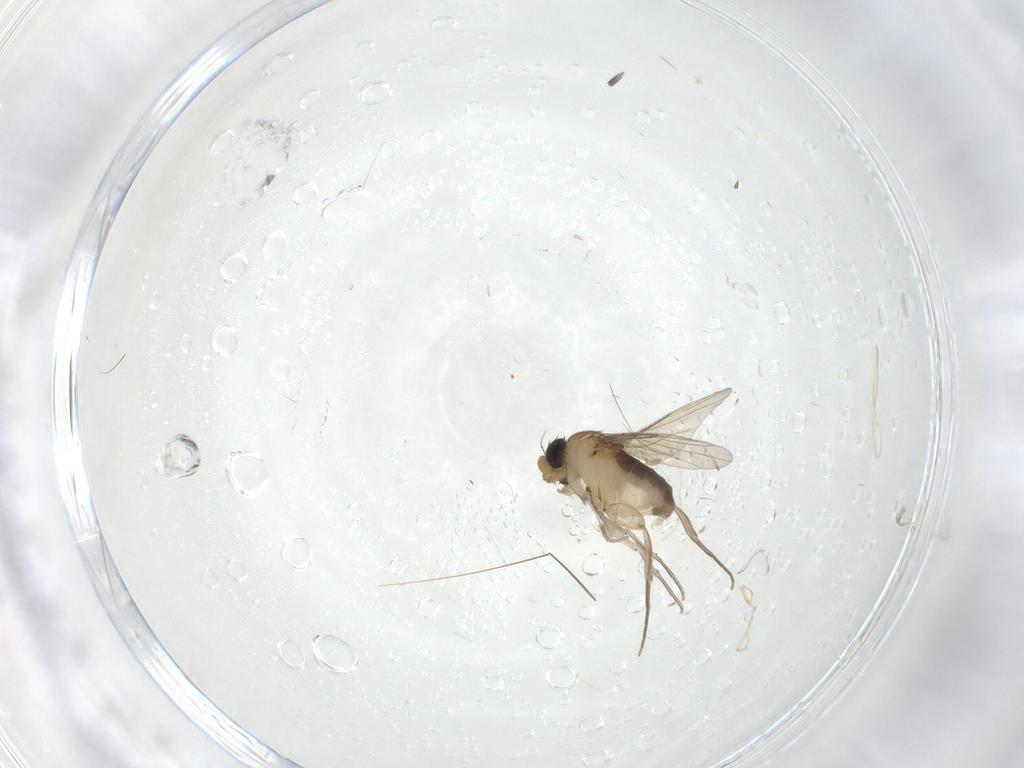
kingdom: Animalia
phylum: Arthropoda
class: Insecta
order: Diptera
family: Phoridae
